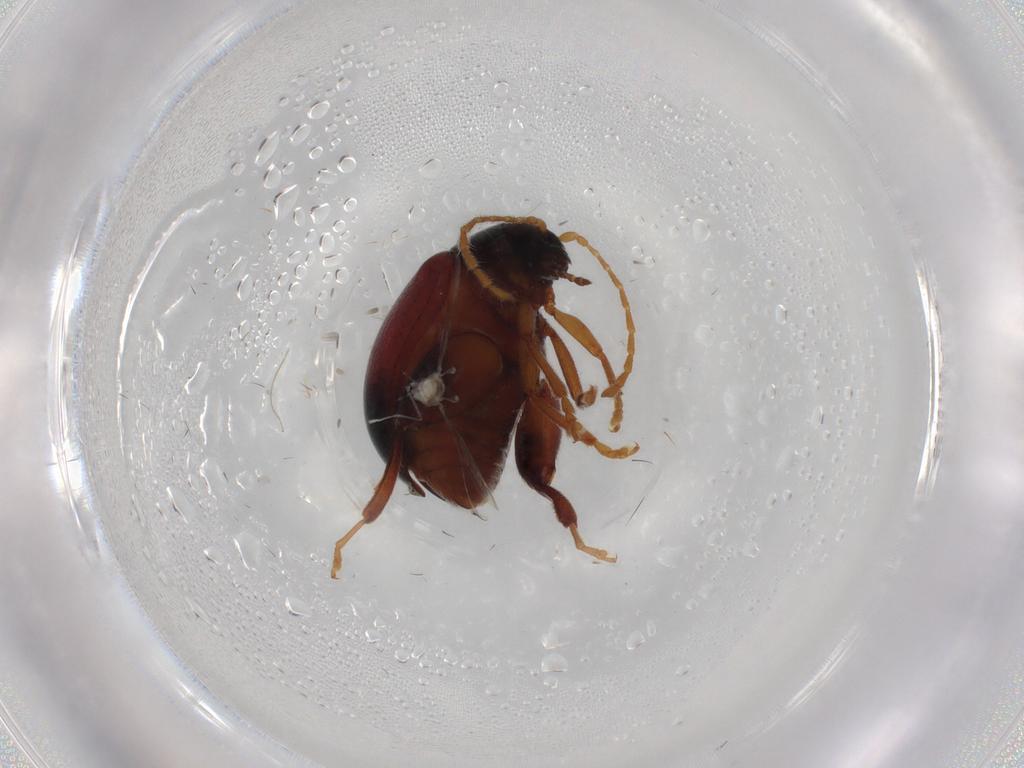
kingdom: Animalia
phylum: Arthropoda
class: Insecta
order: Coleoptera
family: Chrysomelidae
